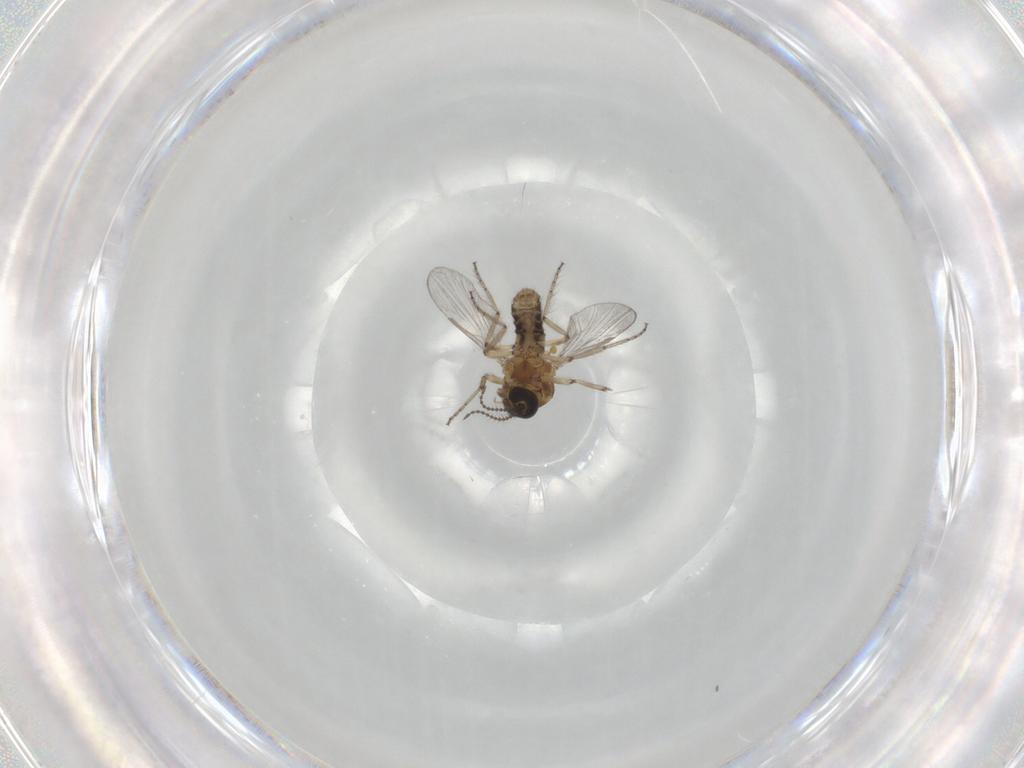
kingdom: Animalia
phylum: Arthropoda
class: Insecta
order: Diptera
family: Ceratopogonidae
